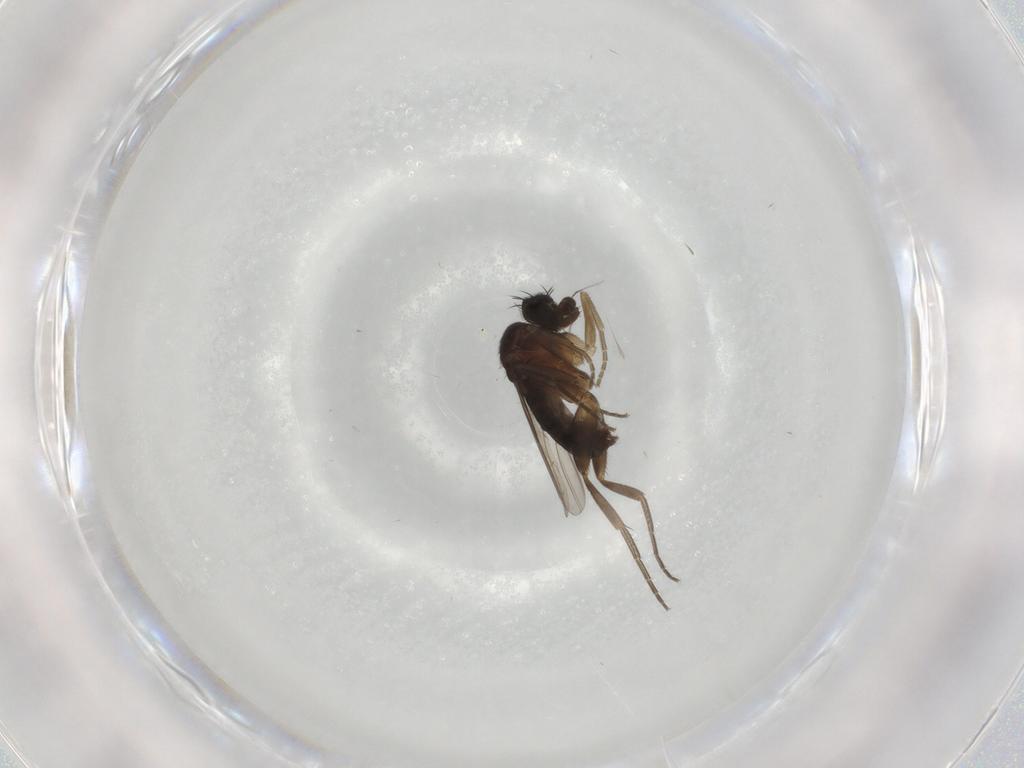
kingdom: Animalia
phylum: Arthropoda
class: Insecta
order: Diptera
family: Phoridae
